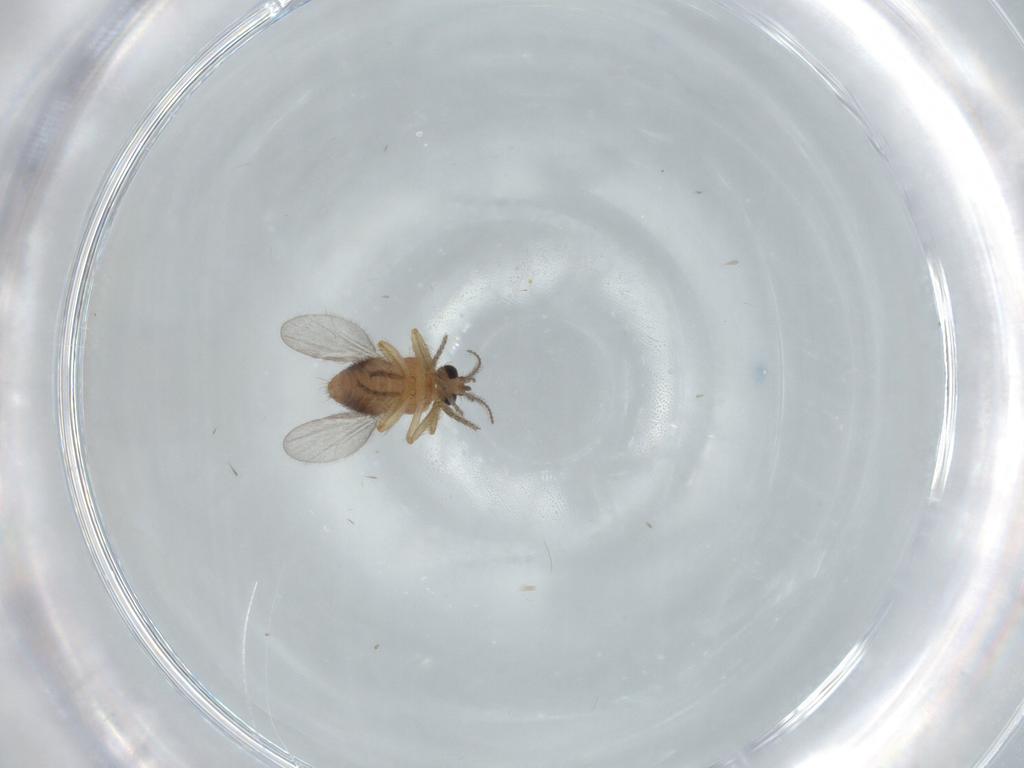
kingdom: Animalia
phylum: Arthropoda
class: Insecta
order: Diptera
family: Ceratopogonidae
